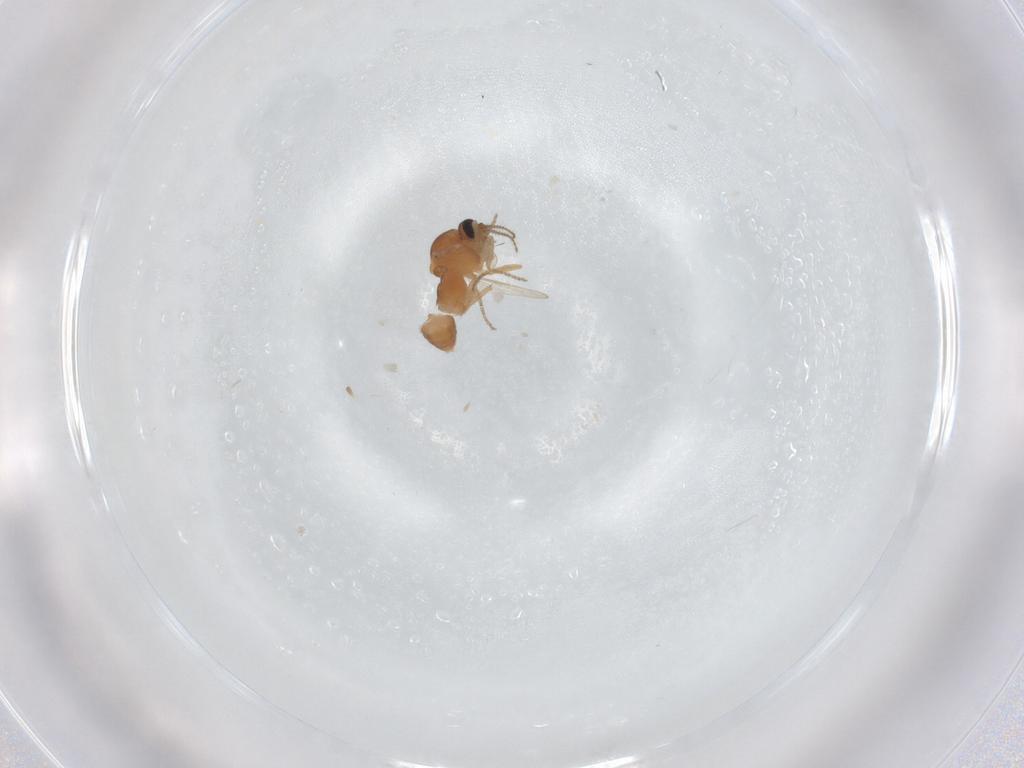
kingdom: Animalia
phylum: Arthropoda
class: Insecta
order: Diptera
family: Ceratopogonidae
